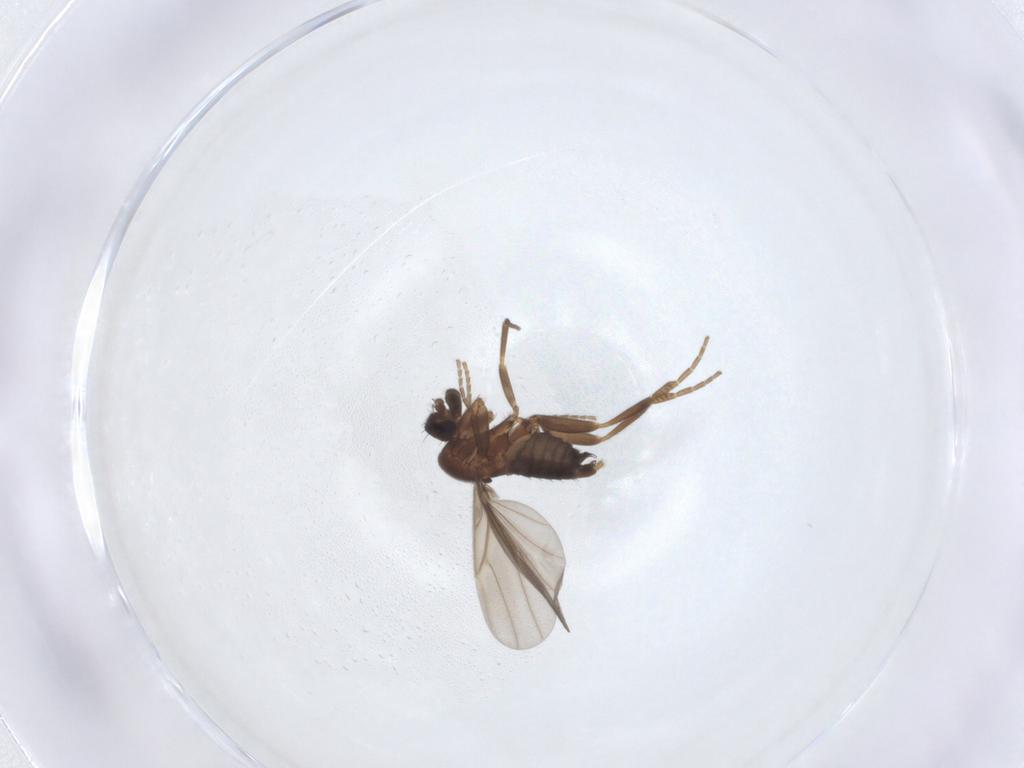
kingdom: Animalia
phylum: Arthropoda
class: Insecta
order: Diptera
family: Phoridae
